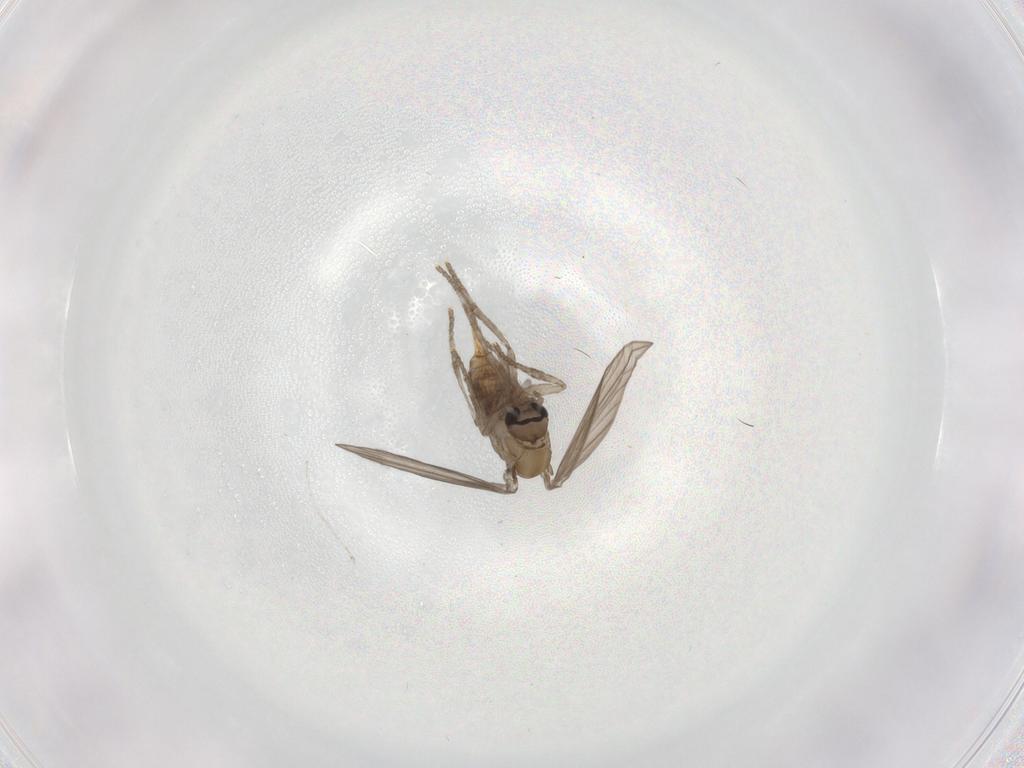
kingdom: Animalia
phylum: Arthropoda
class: Insecta
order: Diptera
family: Psychodidae
